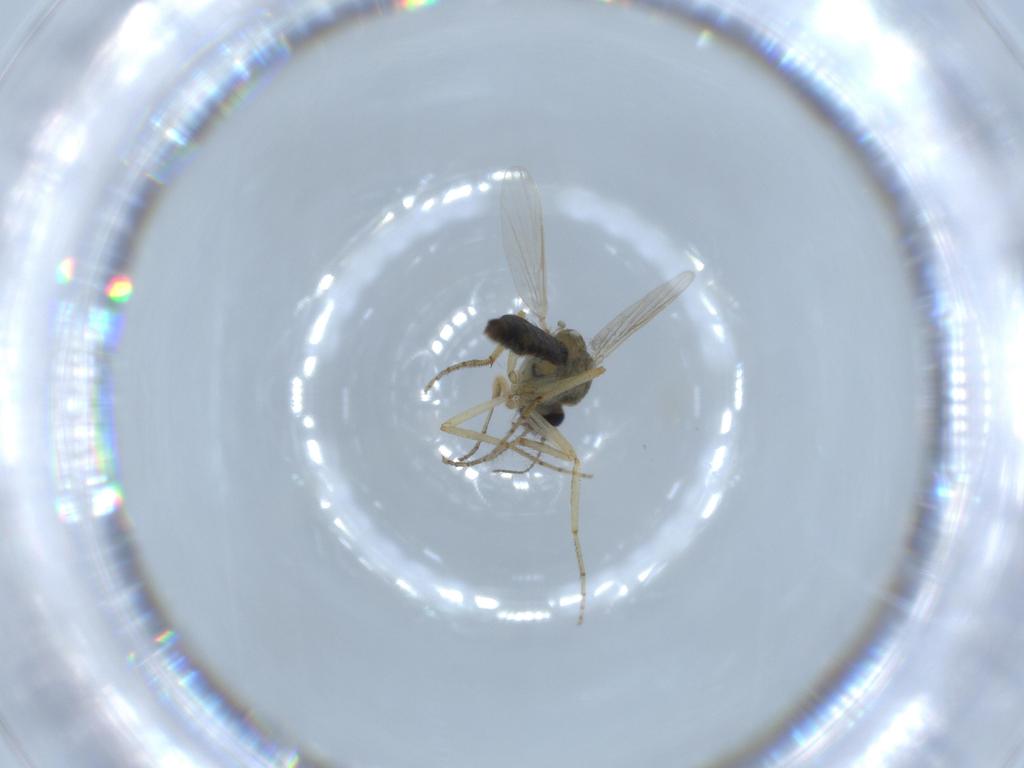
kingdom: Animalia
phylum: Arthropoda
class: Insecta
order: Diptera
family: Ceratopogonidae
